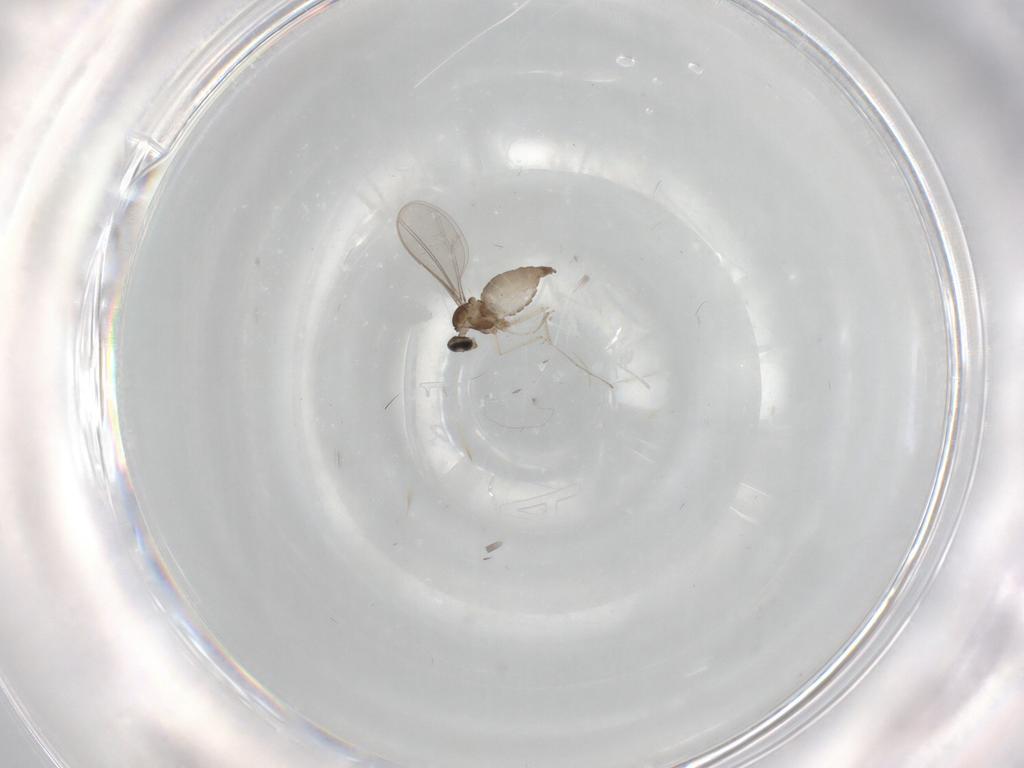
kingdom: Animalia
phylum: Arthropoda
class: Insecta
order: Diptera
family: Cecidomyiidae
